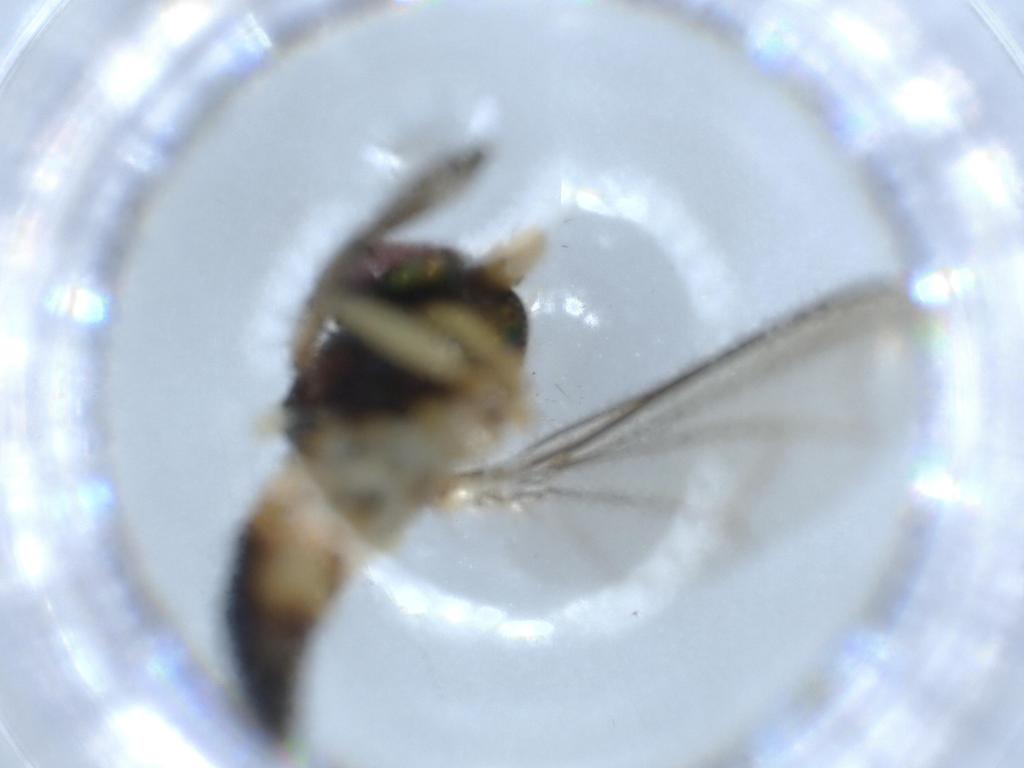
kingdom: Animalia
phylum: Arthropoda
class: Insecta
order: Diptera
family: Dolichopodidae
